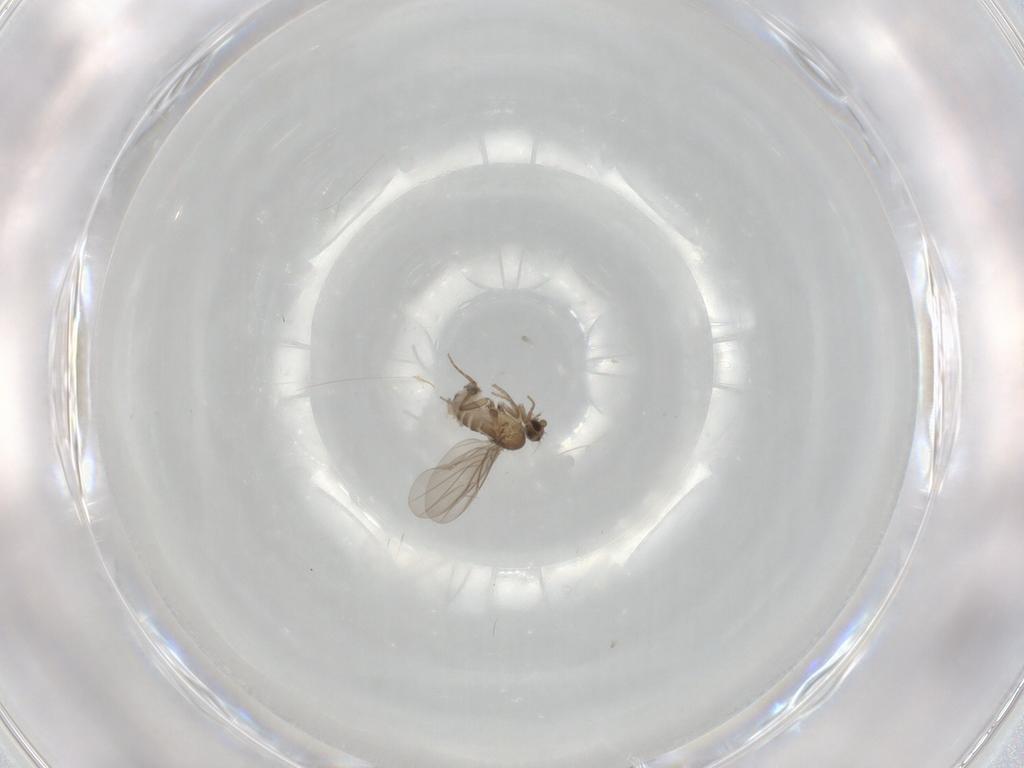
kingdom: Animalia
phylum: Arthropoda
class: Insecta
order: Diptera
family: Phoridae
